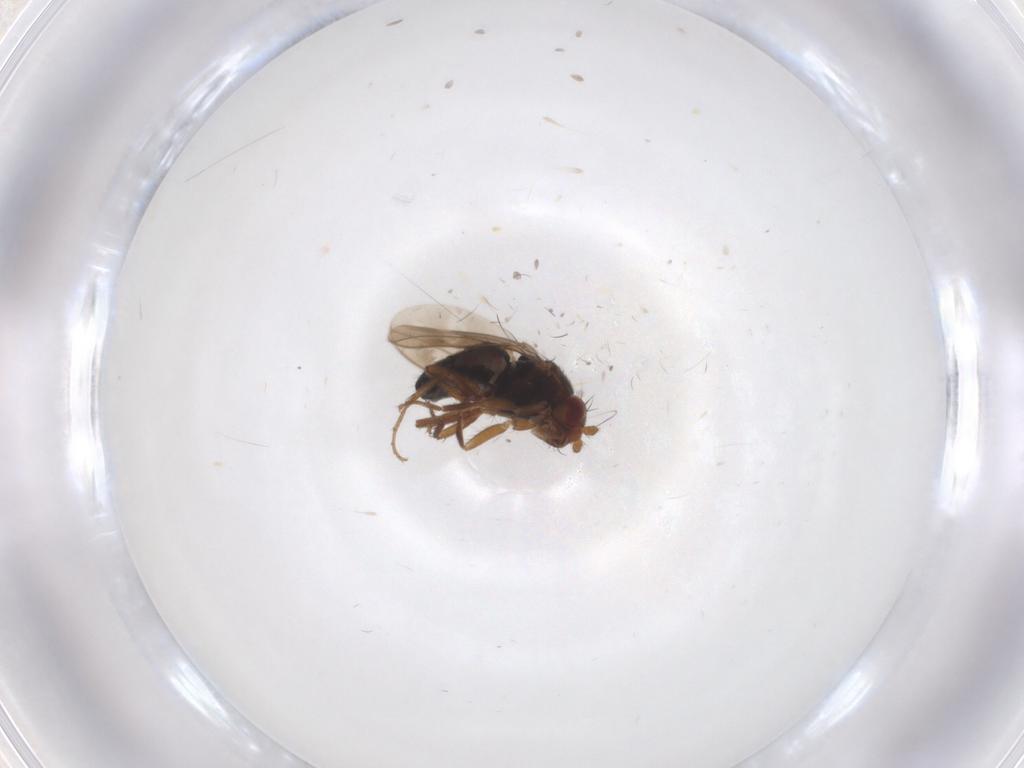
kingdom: Animalia
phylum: Arthropoda
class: Insecta
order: Diptera
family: Sphaeroceridae
